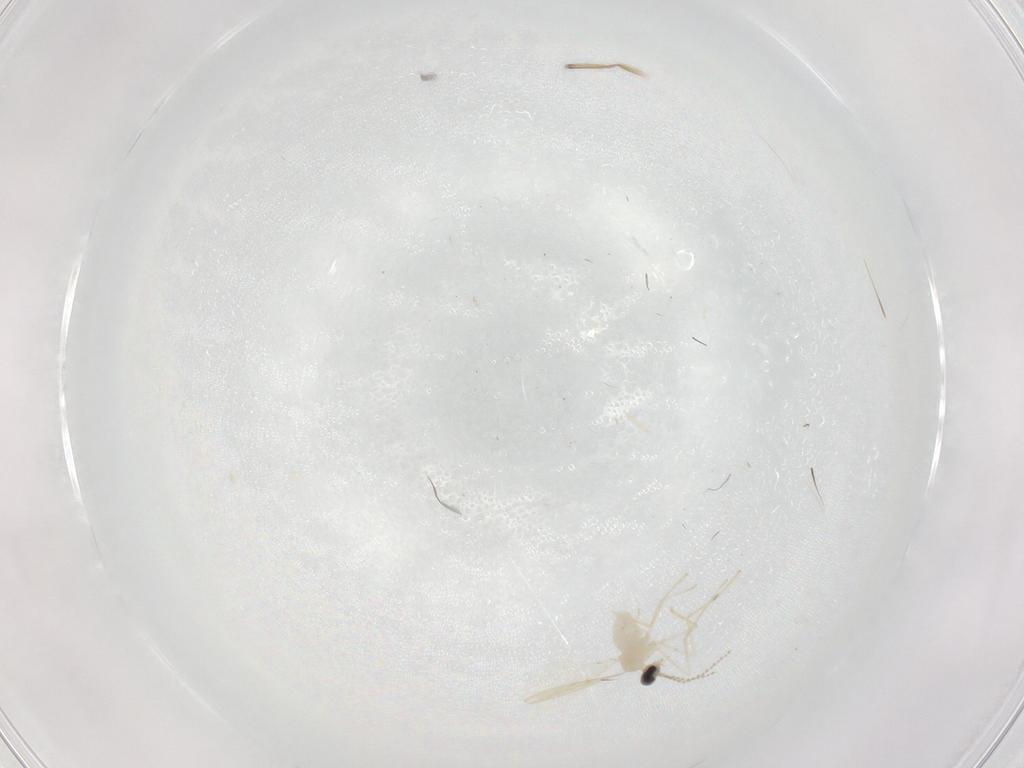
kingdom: Animalia
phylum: Arthropoda
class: Insecta
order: Diptera
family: Cecidomyiidae
